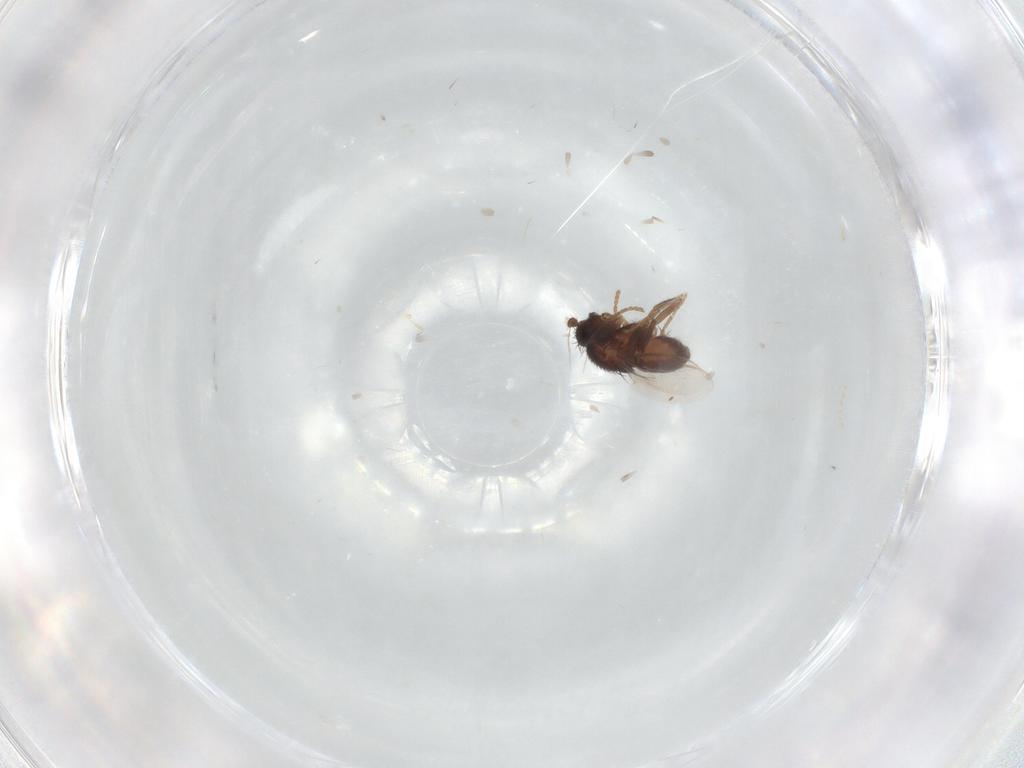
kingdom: Animalia
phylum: Arthropoda
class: Insecta
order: Diptera
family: Sphaeroceridae
